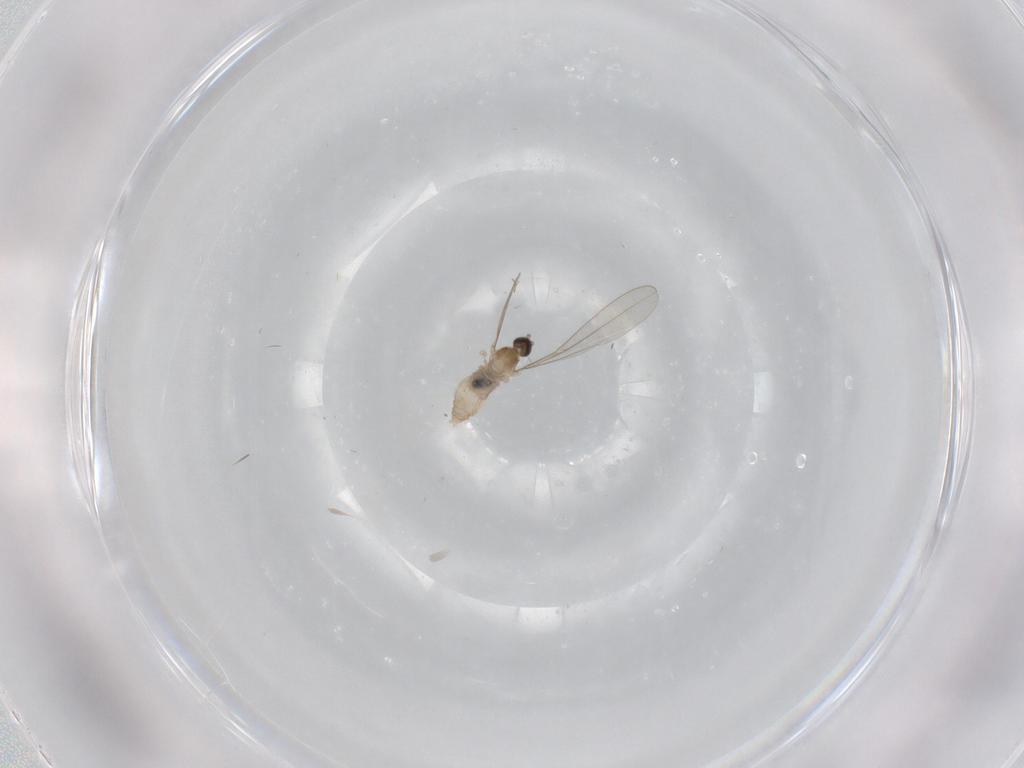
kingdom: Animalia
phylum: Arthropoda
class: Insecta
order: Diptera
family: Cecidomyiidae
